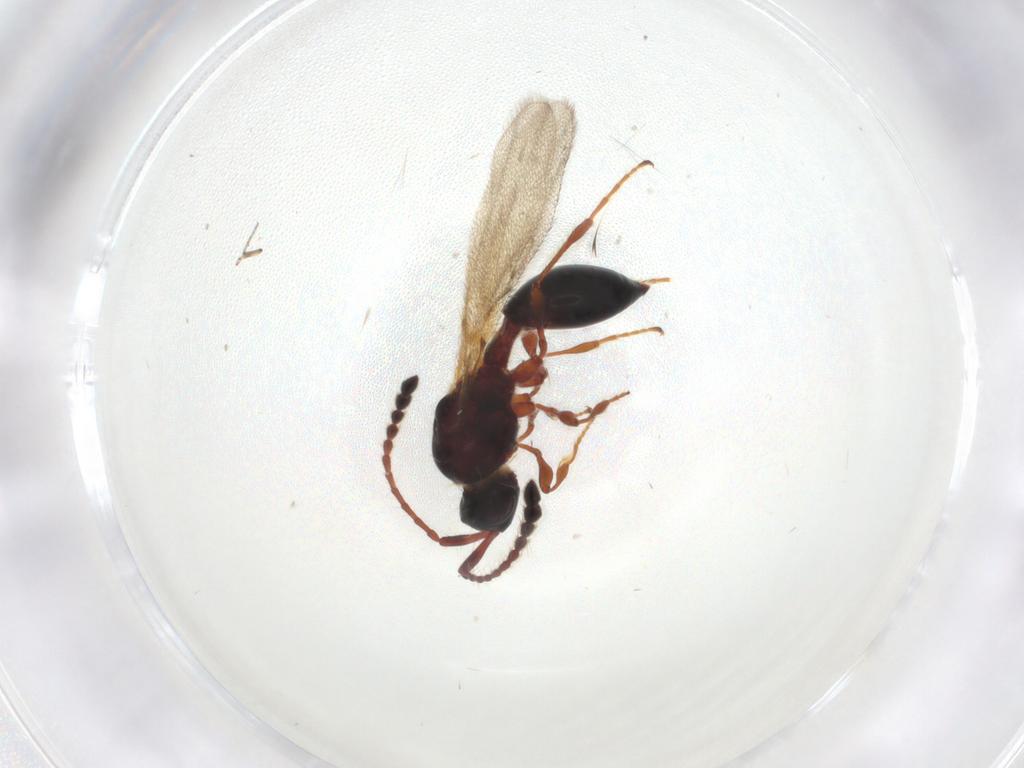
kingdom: Animalia
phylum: Arthropoda
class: Insecta
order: Hymenoptera
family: Diapriidae
